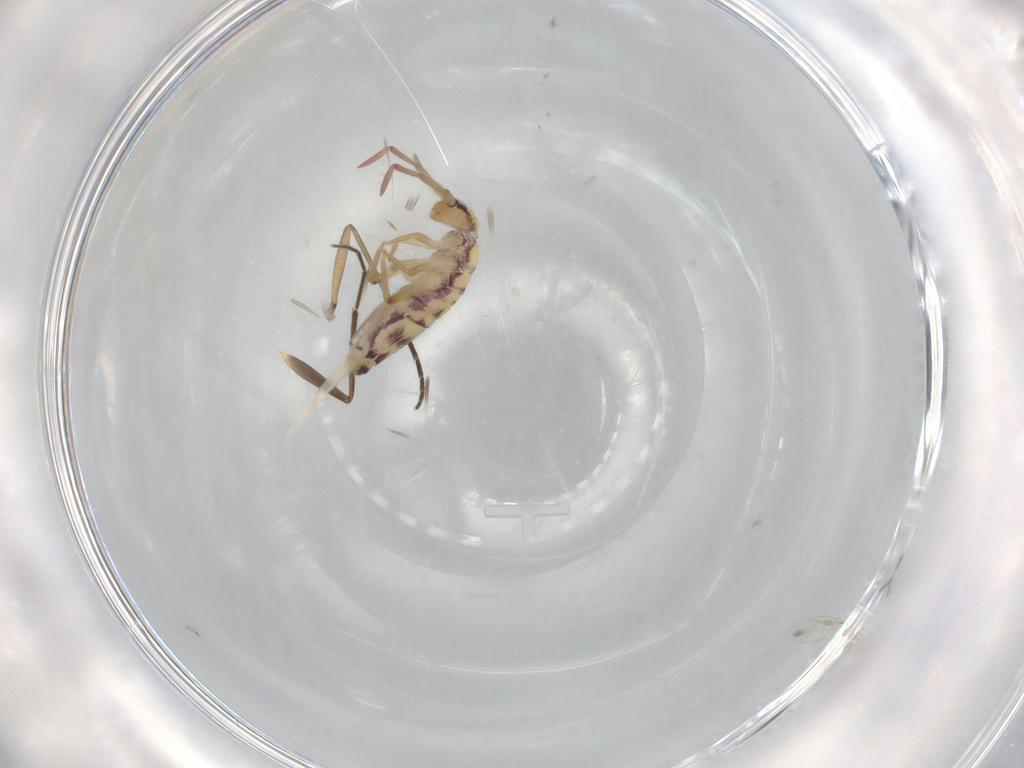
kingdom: Animalia
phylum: Arthropoda
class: Collembola
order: Entomobryomorpha
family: Entomobryidae
